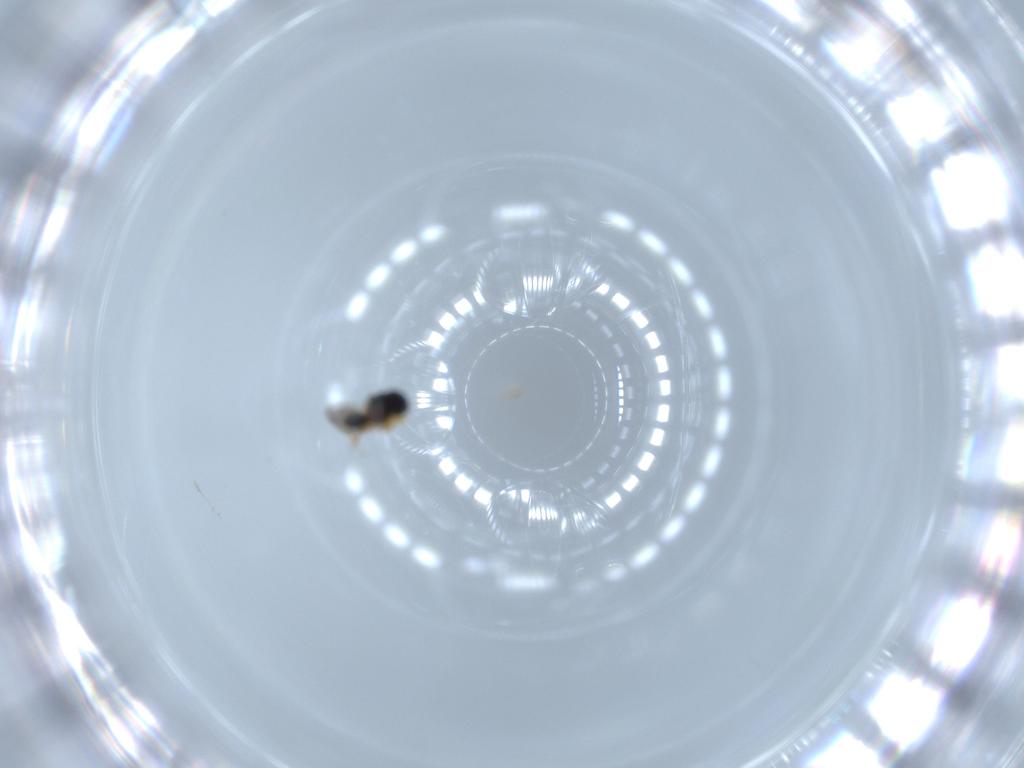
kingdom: Animalia
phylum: Arthropoda
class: Insecta
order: Hymenoptera
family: Platygastridae
